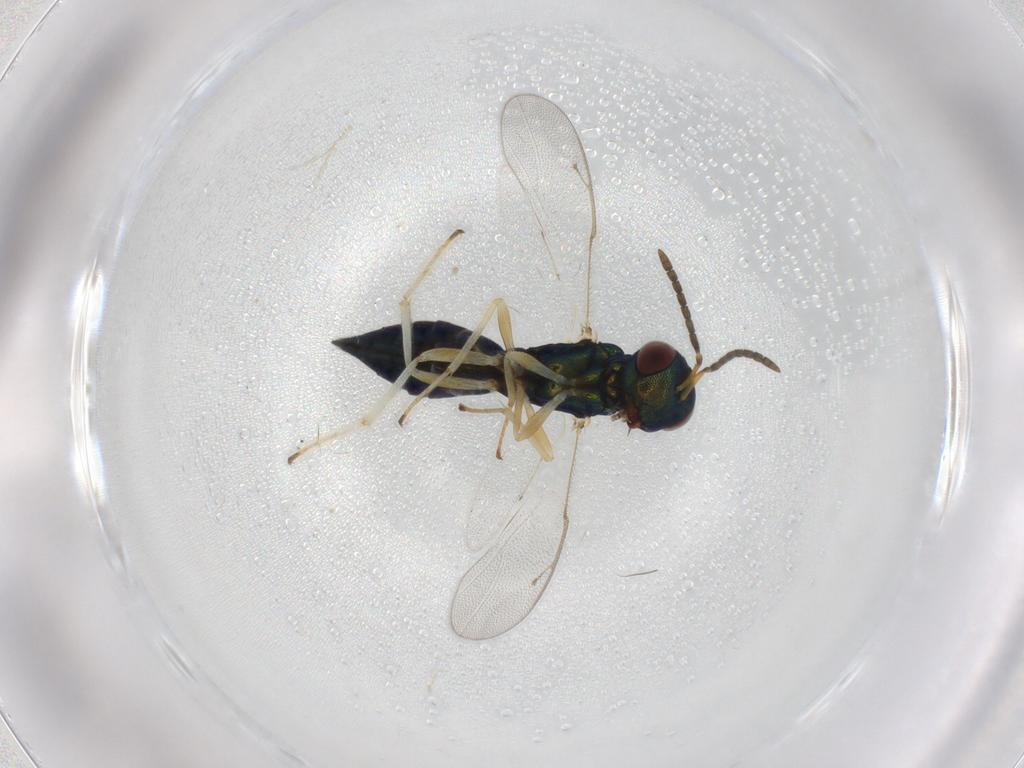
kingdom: Animalia
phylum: Arthropoda
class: Insecta
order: Hymenoptera
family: Pteromalidae
